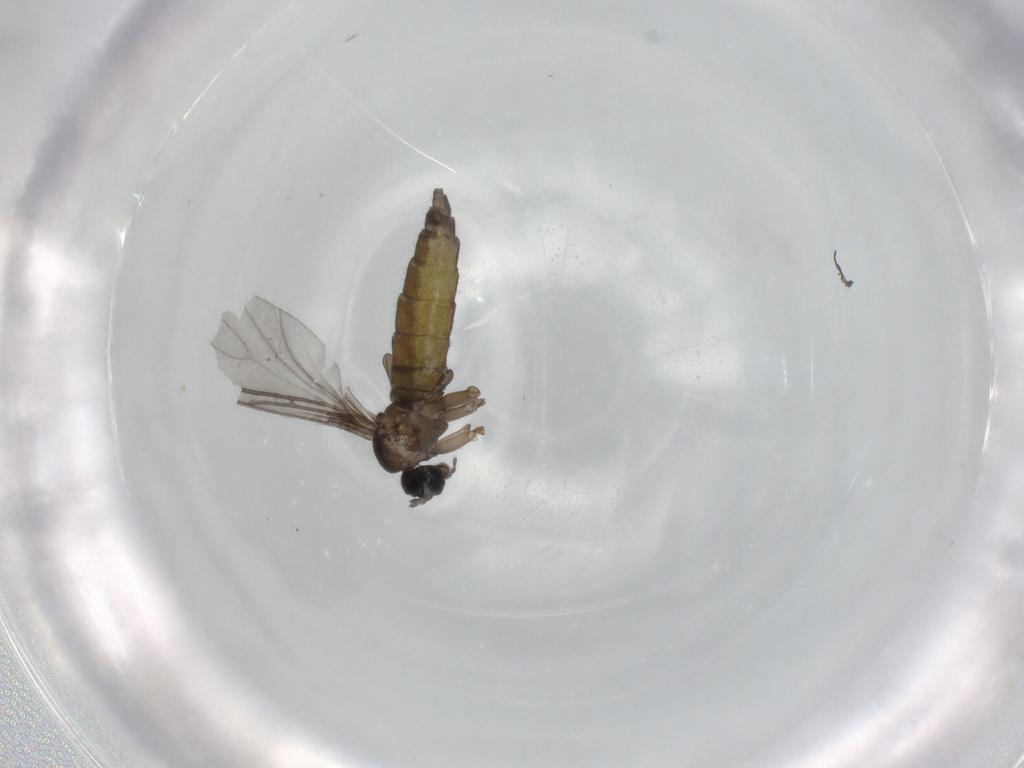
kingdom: Animalia
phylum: Arthropoda
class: Insecta
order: Diptera
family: Sciaridae
